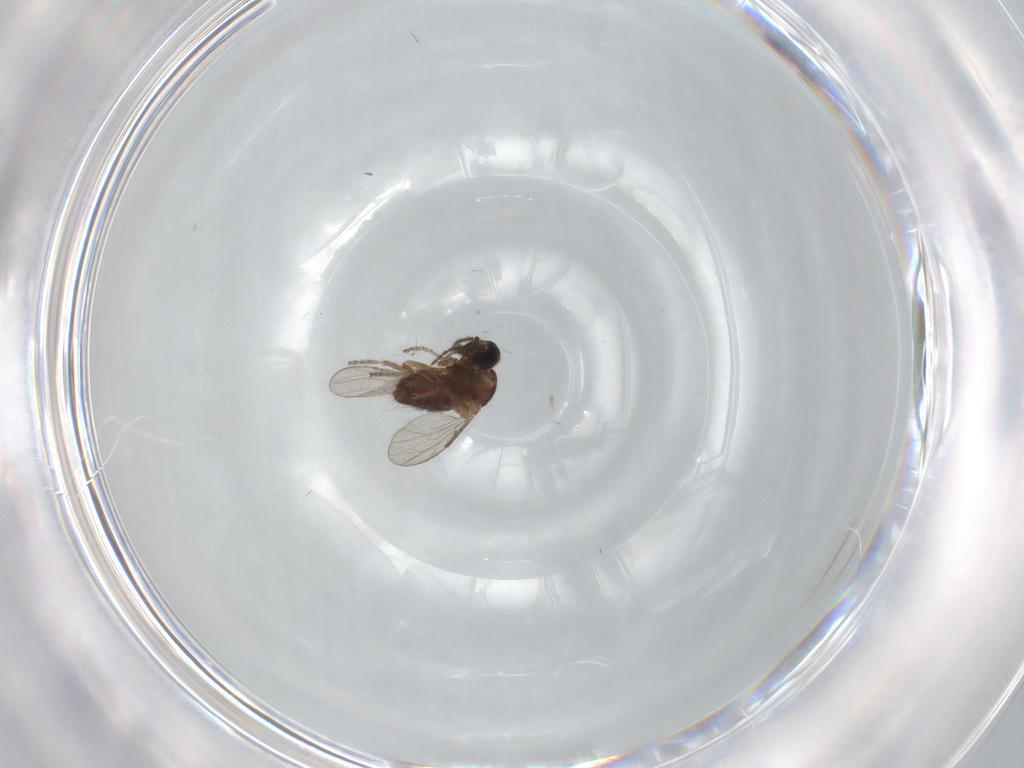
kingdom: Animalia
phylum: Arthropoda
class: Insecta
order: Diptera
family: Ceratopogonidae
